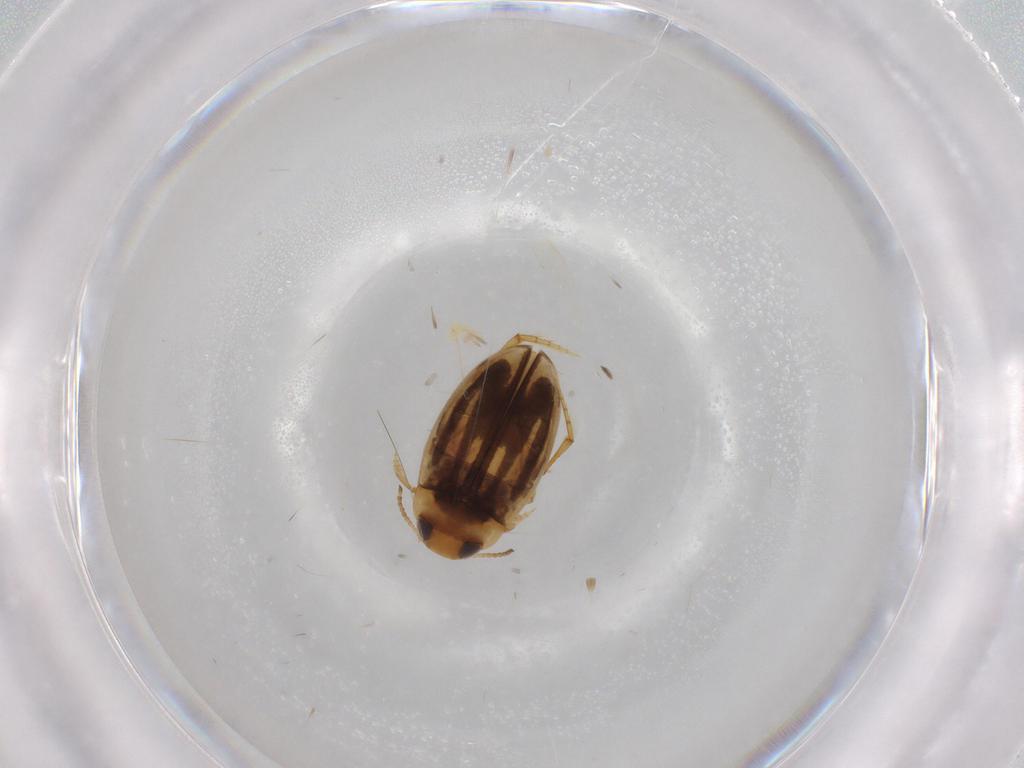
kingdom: Animalia
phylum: Arthropoda
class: Insecta
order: Coleoptera
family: Dytiscidae
